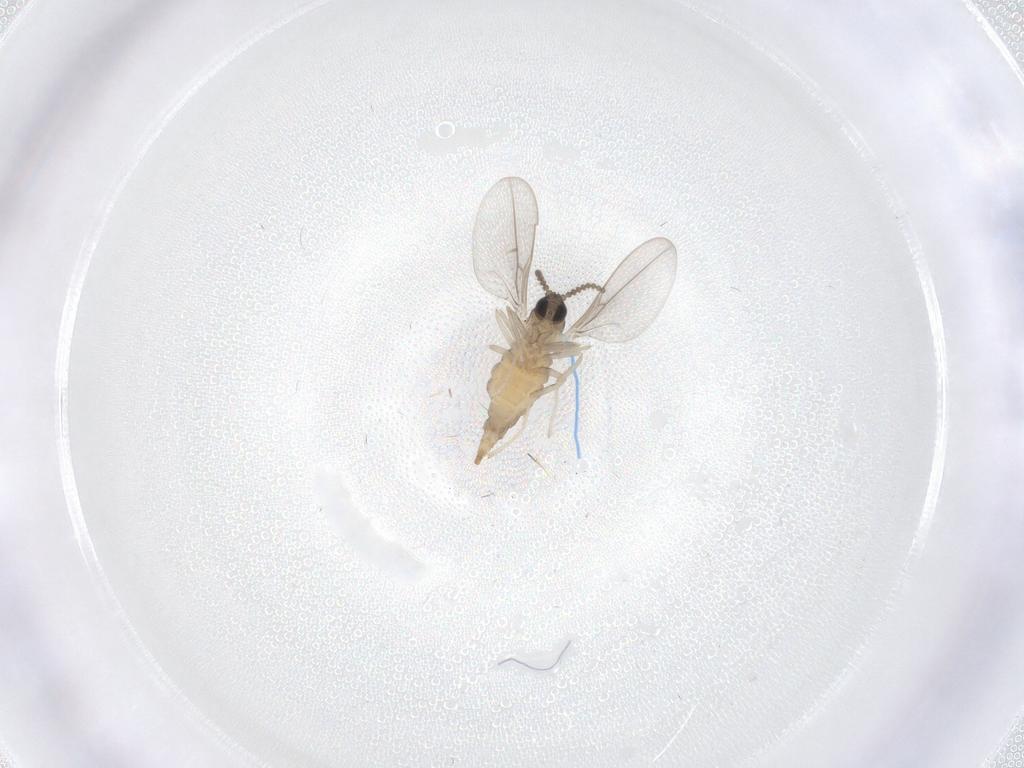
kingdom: Animalia
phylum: Arthropoda
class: Insecta
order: Diptera
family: Cecidomyiidae
